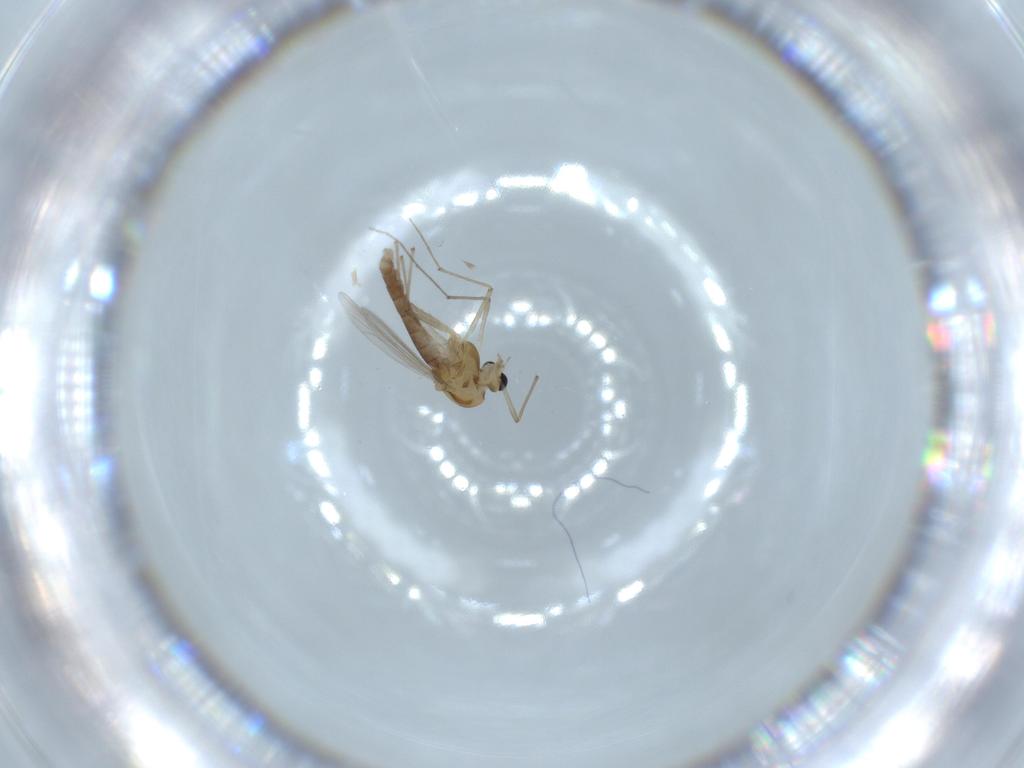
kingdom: Animalia
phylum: Arthropoda
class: Insecta
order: Diptera
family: Chironomidae
